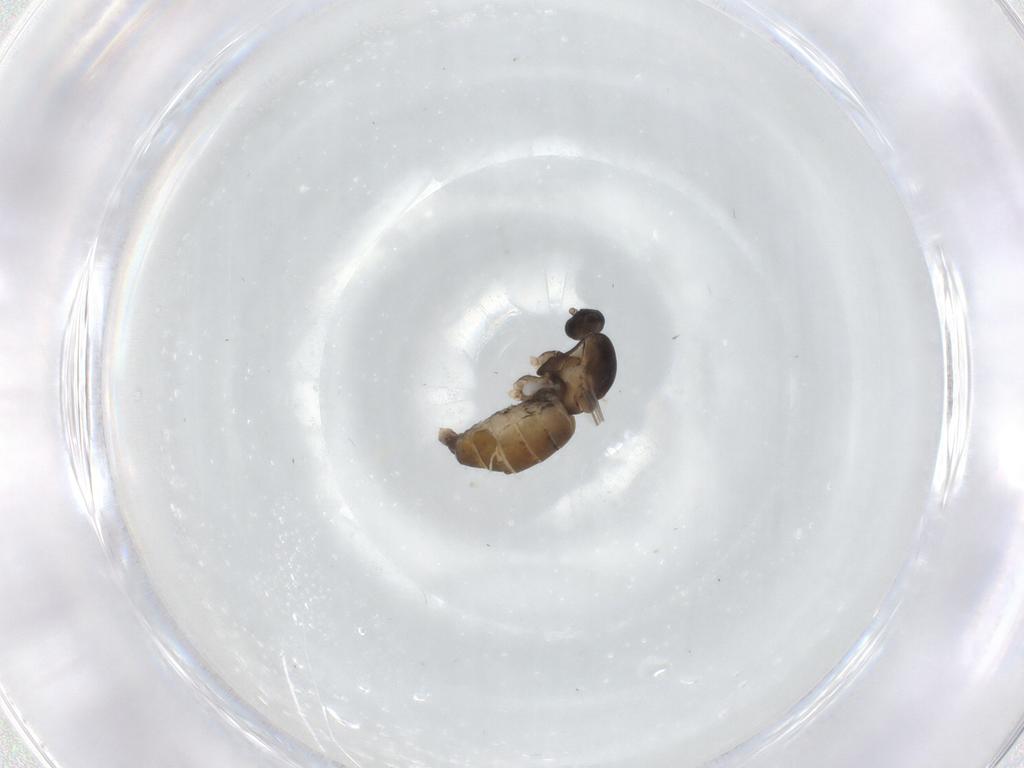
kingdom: Animalia
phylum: Arthropoda
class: Insecta
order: Diptera
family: Cecidomyiidae
